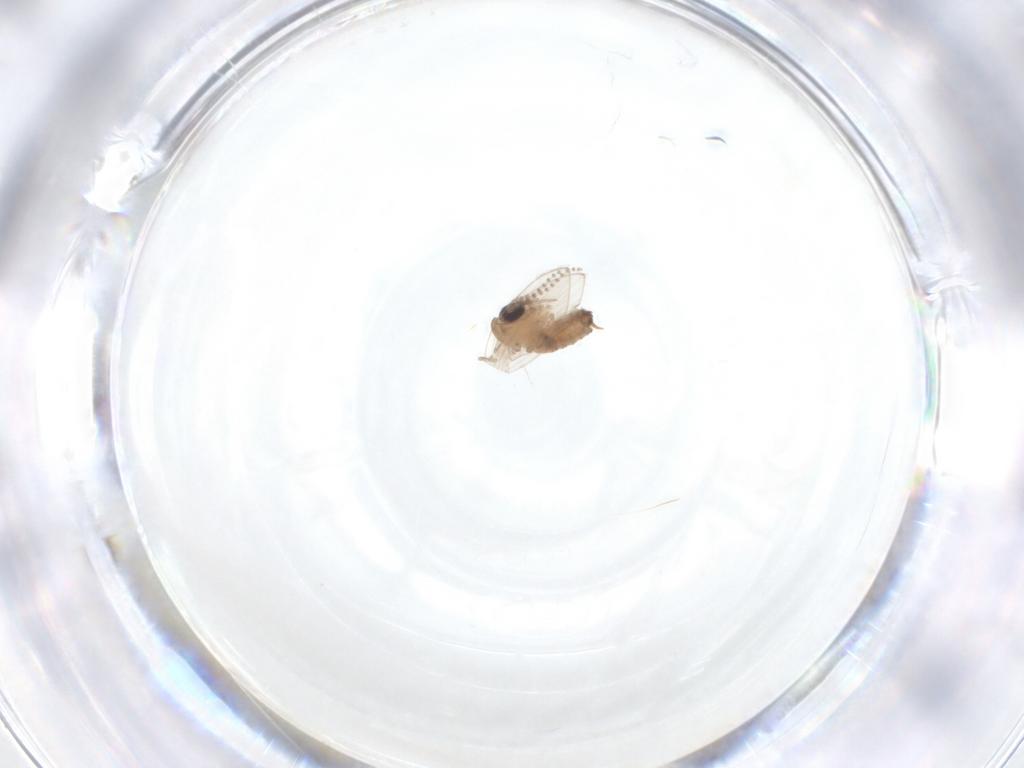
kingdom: Animalia
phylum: Arthropoda
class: Insecta
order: Diptera
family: Psychodidae
